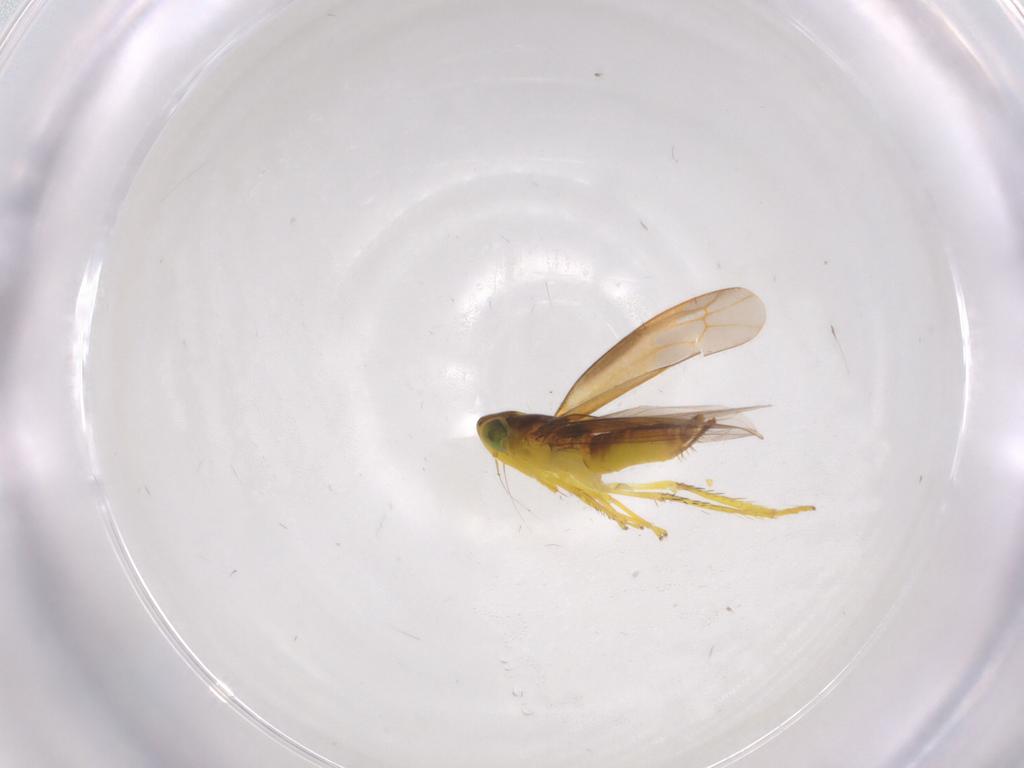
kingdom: Animalia
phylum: Arthropoda
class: Insecta
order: Hemiptera
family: Cicadellidae
